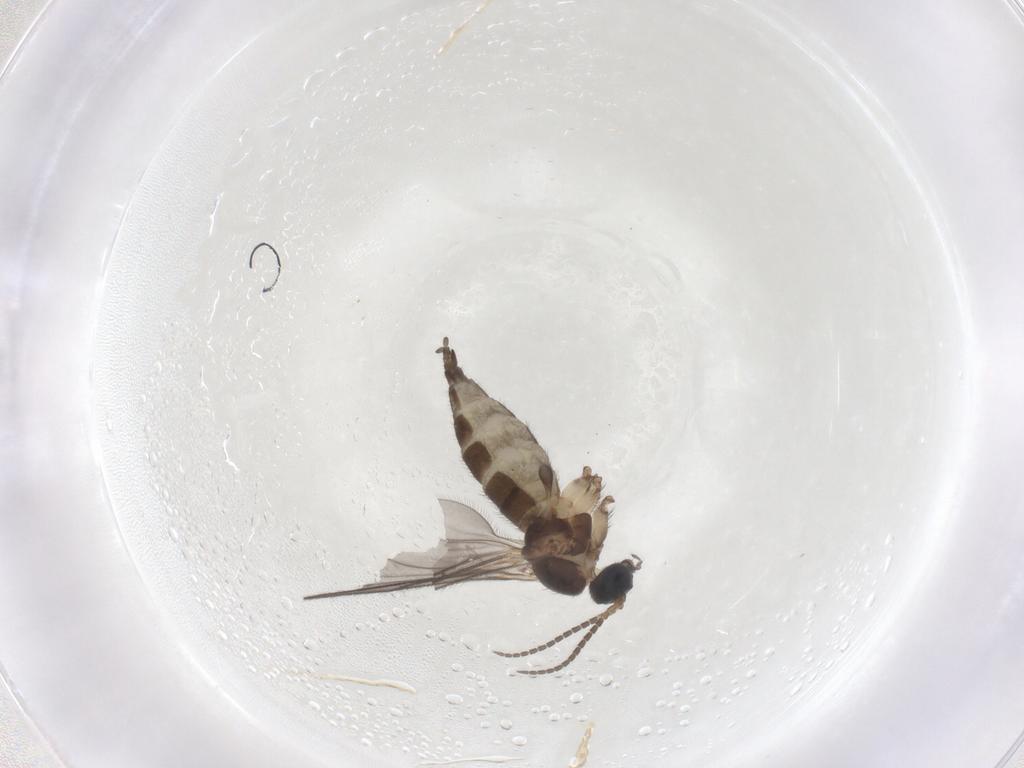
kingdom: Animalia
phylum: Arthropoda
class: Insecta
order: Diptera
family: Sciaridae
